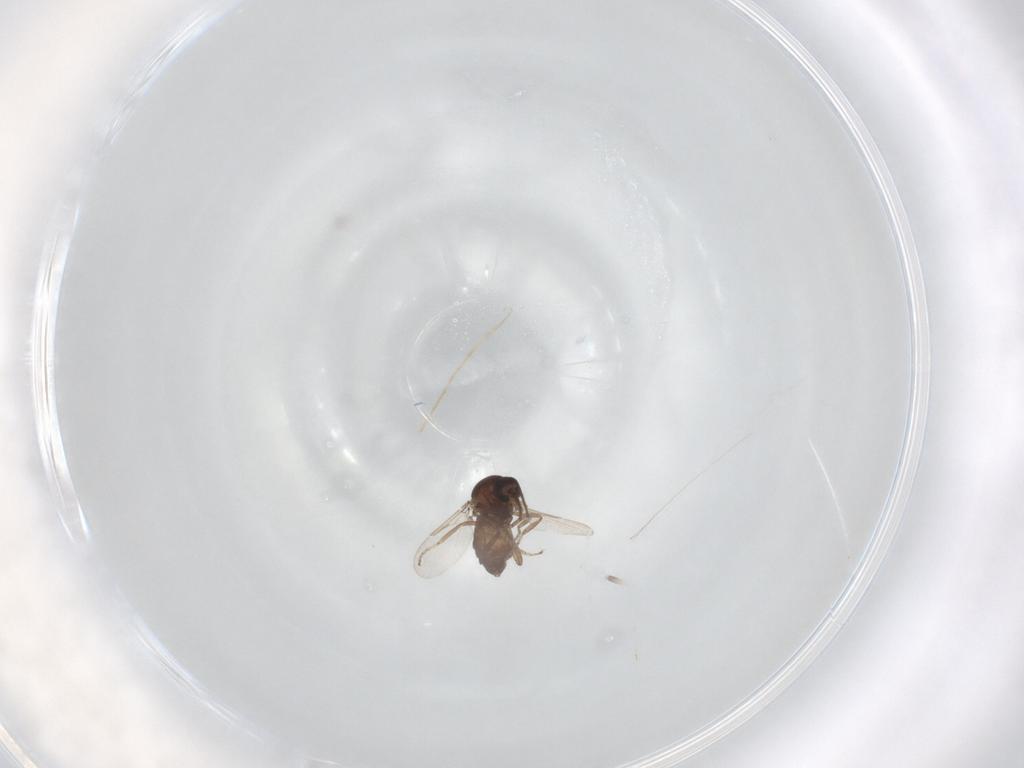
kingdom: Animalia
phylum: Arthropoda
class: Insecta
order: Diptera
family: Ceratopogonidae
